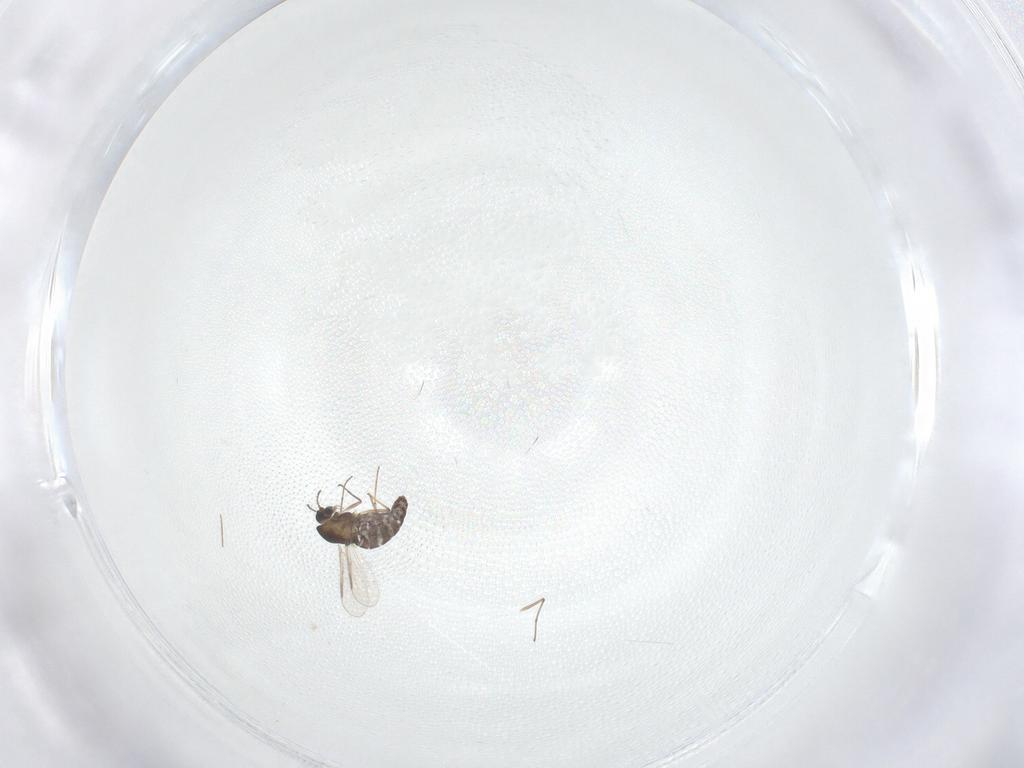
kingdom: Animalia
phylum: Arthropoda
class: Insecta
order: Diptera
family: Chironomidae
